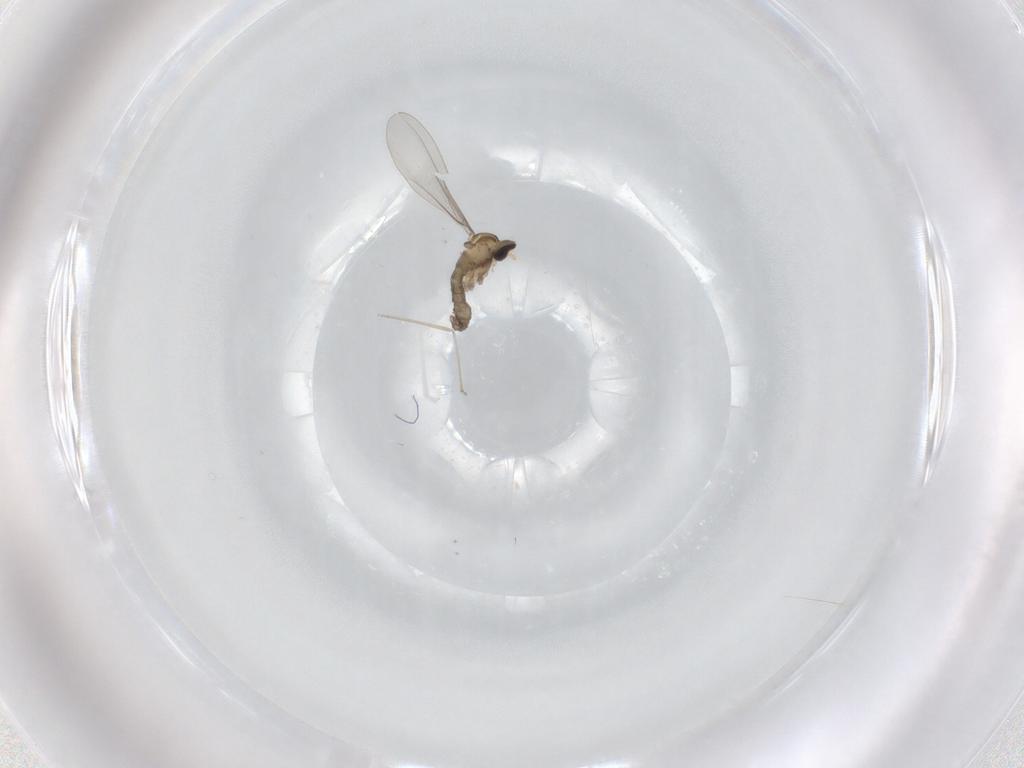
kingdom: Animalia
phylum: Arthropoda
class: Insecta
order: Diptera
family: Cecidomyiidae
